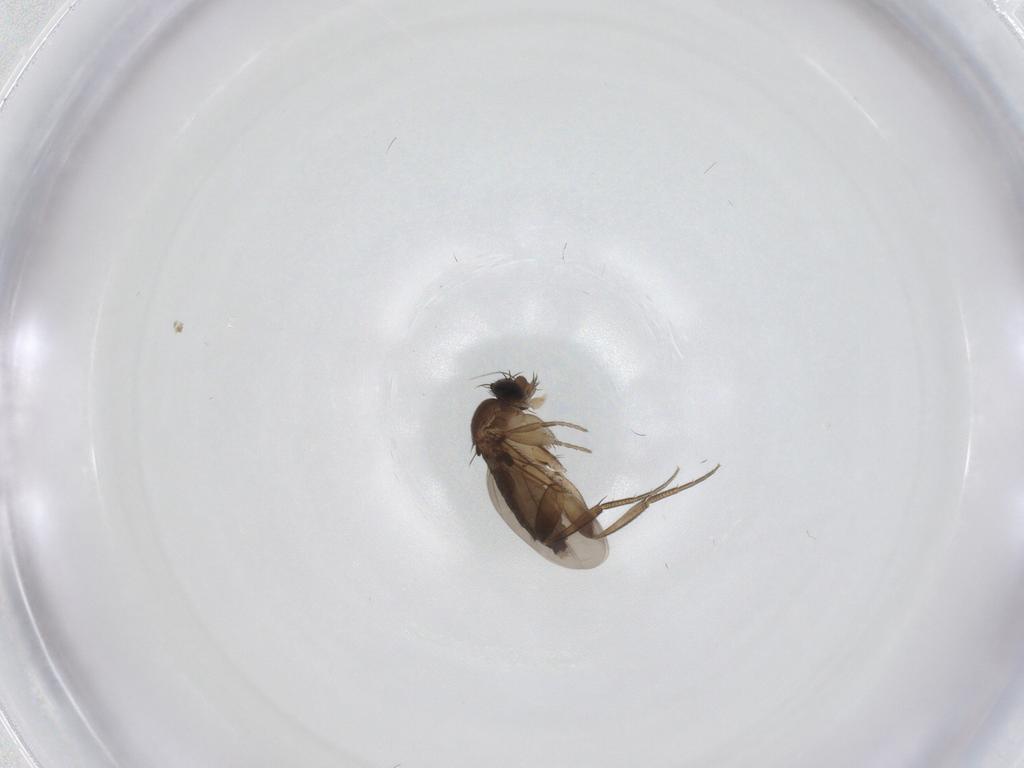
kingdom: Animalia
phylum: Arthropoda
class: Insecta
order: Diptera
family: Phoridae
